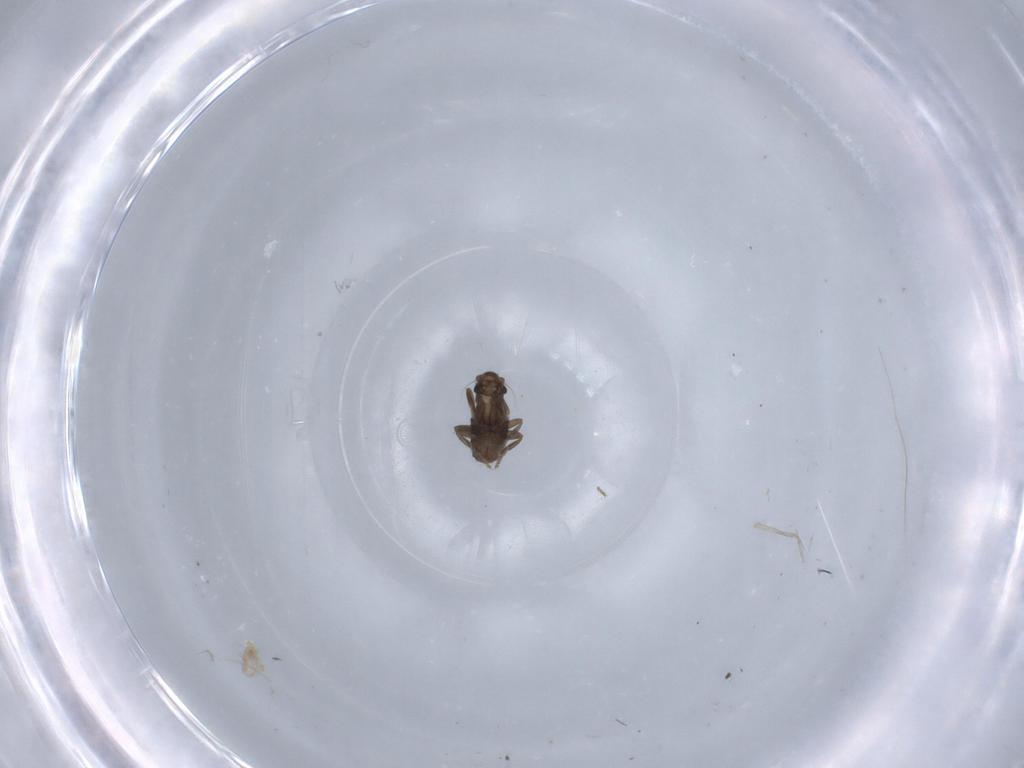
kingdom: Animalia
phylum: Arthropoda
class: Insecta
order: Diptera
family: Phoridae
